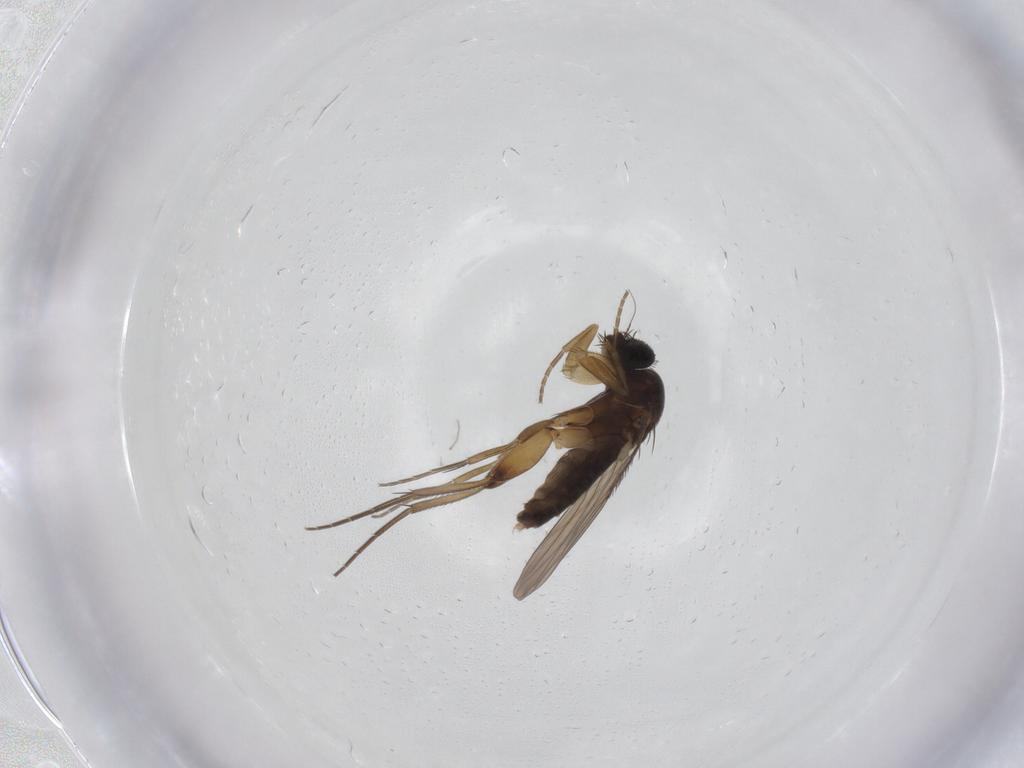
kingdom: Animalia
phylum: Arthropoda
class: Insecta
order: Diptera
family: Phoridae
